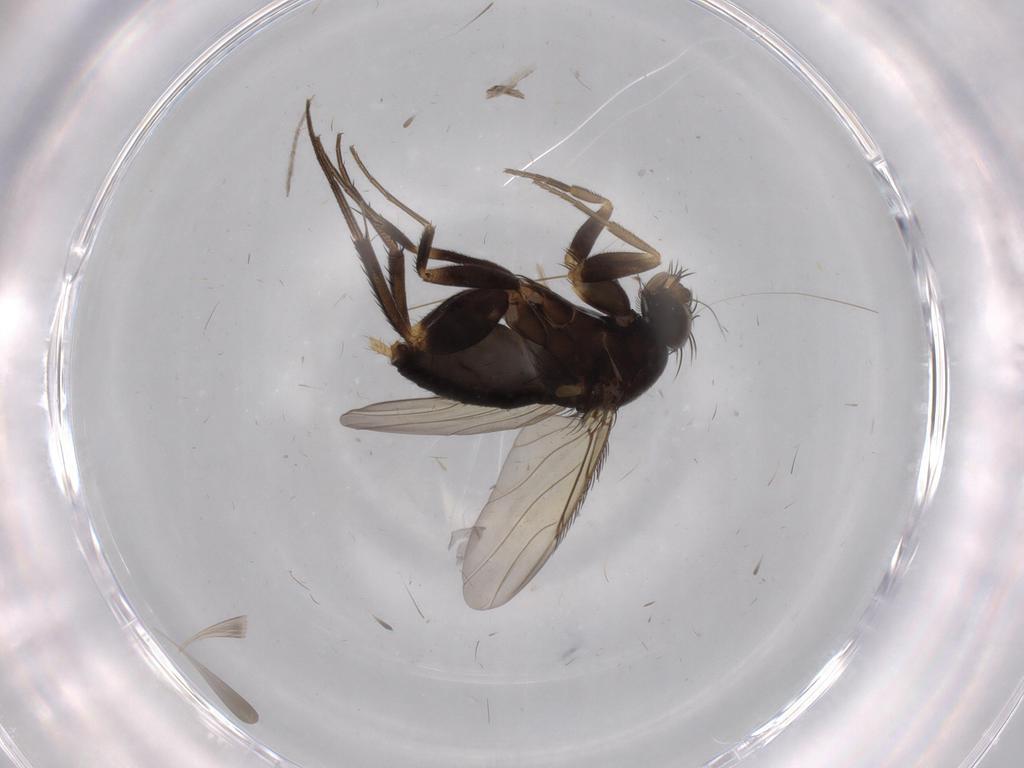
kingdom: Animalia
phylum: Arthropoda
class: Insecta
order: Diptera
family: Phoridae
